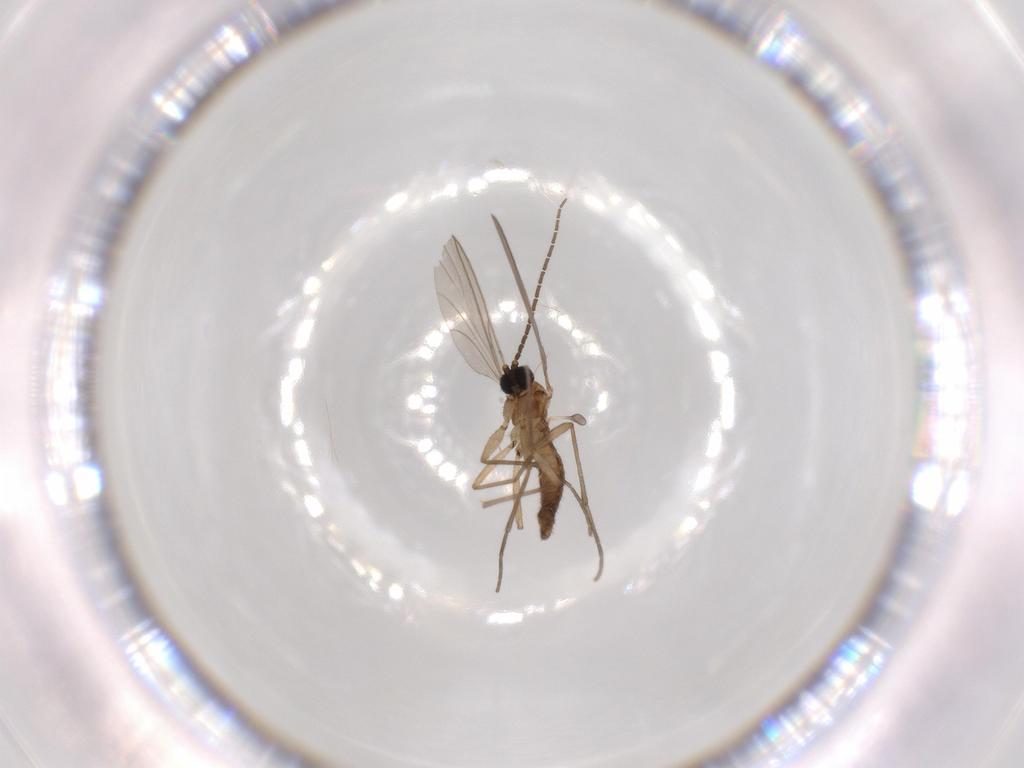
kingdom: Animalia
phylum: Arthropoda
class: Insecta
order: Diptera
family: Sciaridae
